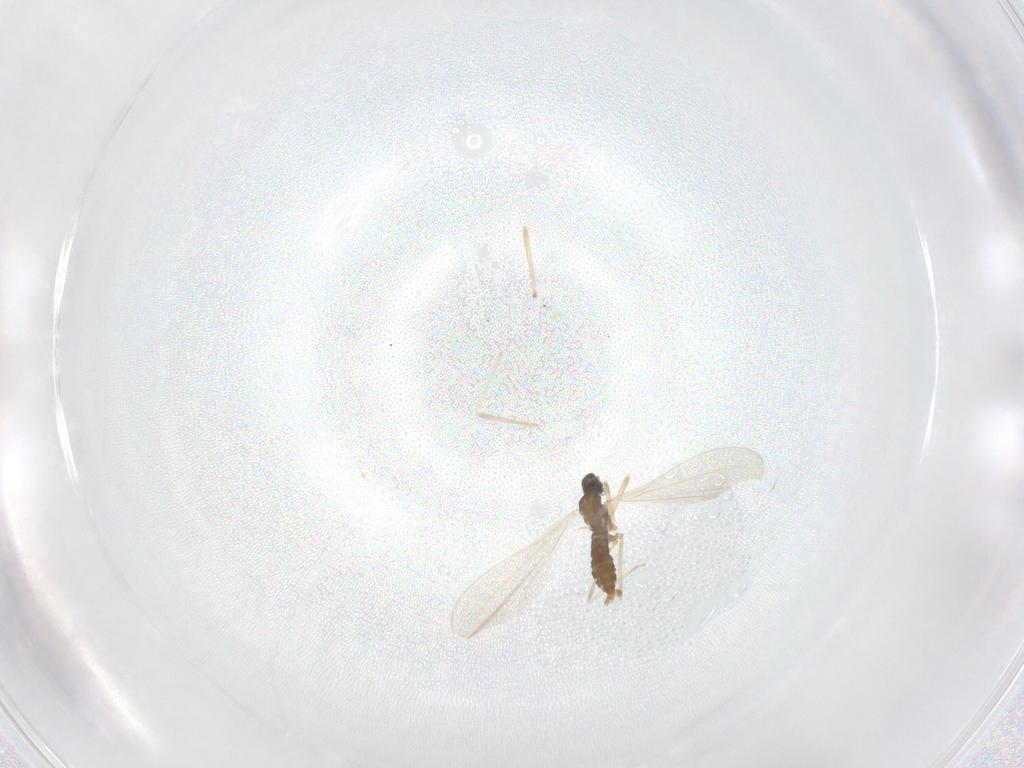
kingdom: Animalia
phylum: Arthropoda
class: Insecta
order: Diptera
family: Cecidomyiidae
